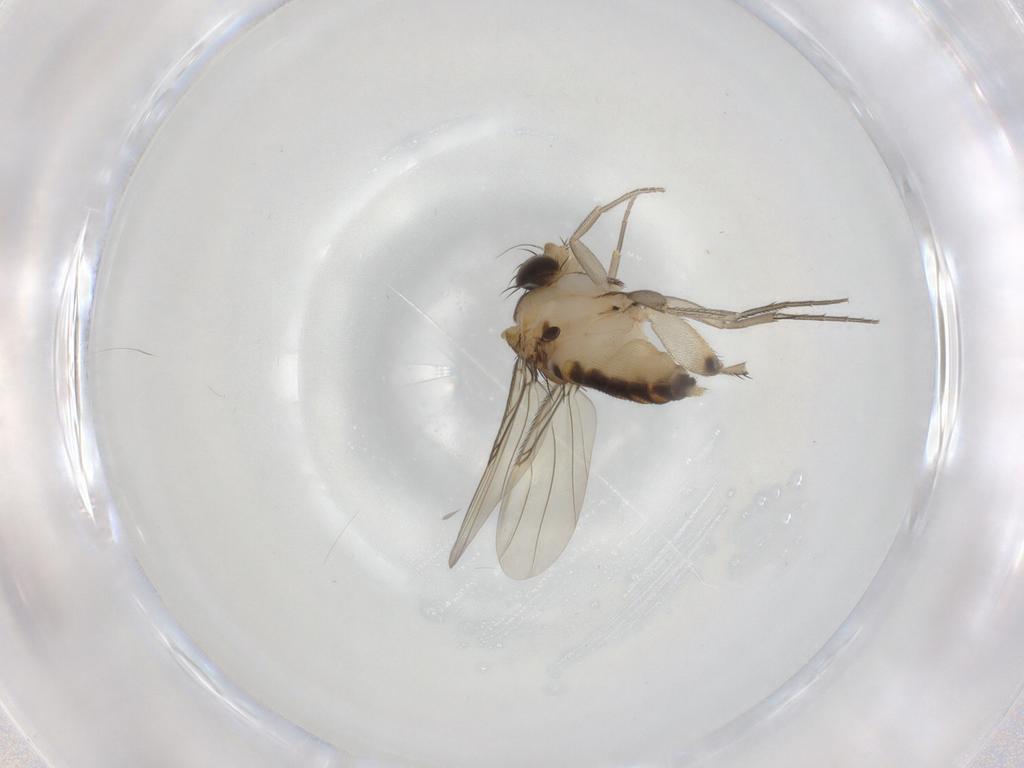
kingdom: Animalia
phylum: Arthropoda
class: Insecta
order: Diptera
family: Phoridae
